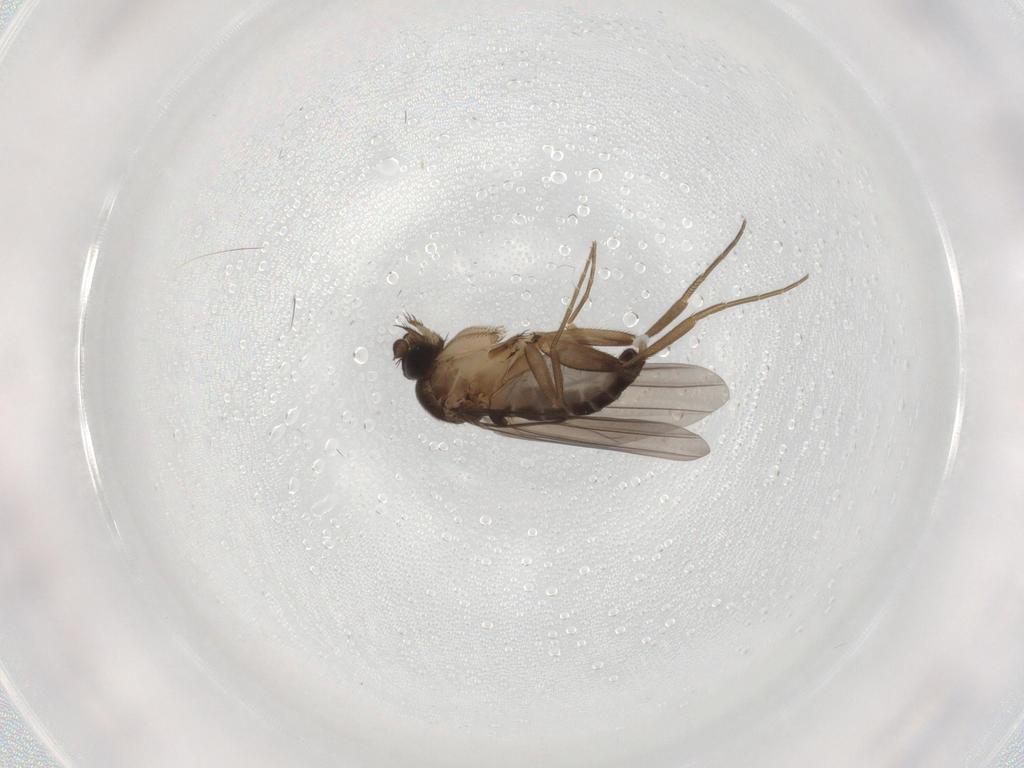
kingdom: Animalia
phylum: Arthropoda
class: Insecta
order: Diptera
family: Phoridae
